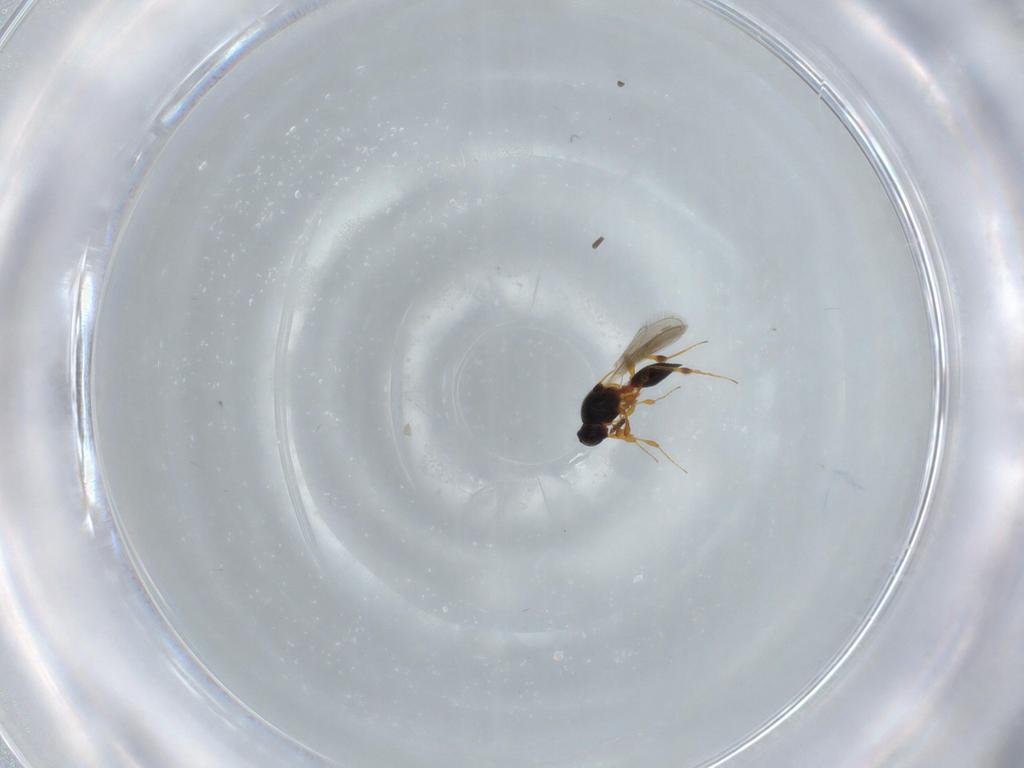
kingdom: Animalia
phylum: Arthropoda
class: Insecta
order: Hymenoptera
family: Platygastridae
